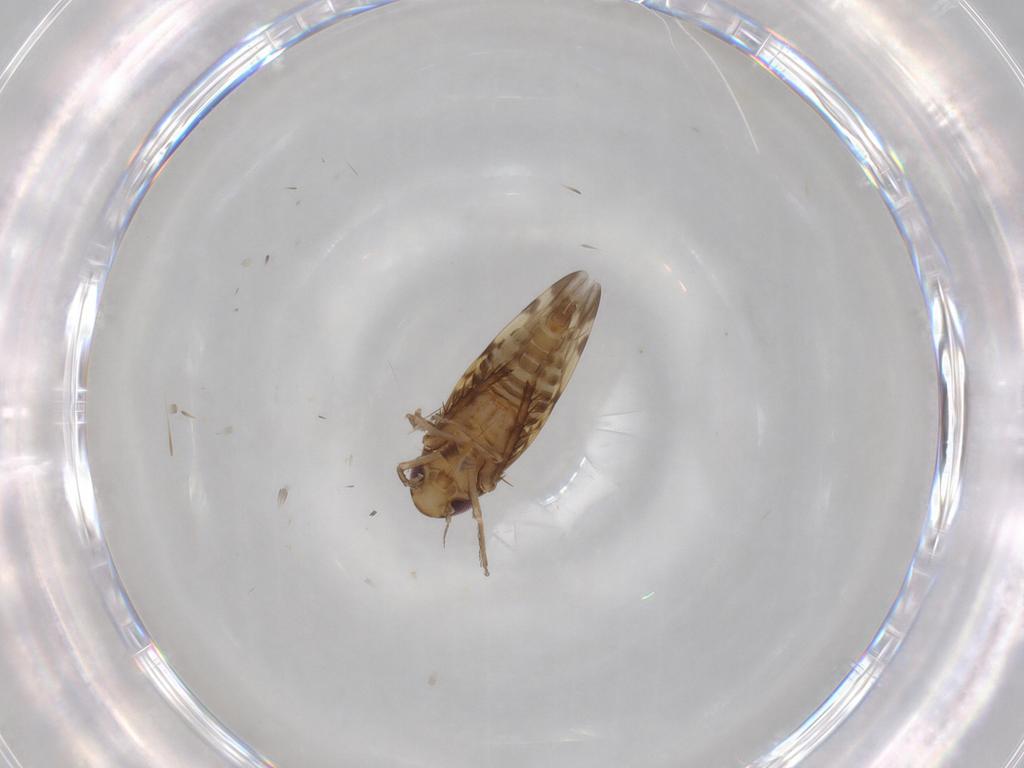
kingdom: Animalia
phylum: Arthropoda
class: Insecta
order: Hemiptera
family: Cicadellidae
